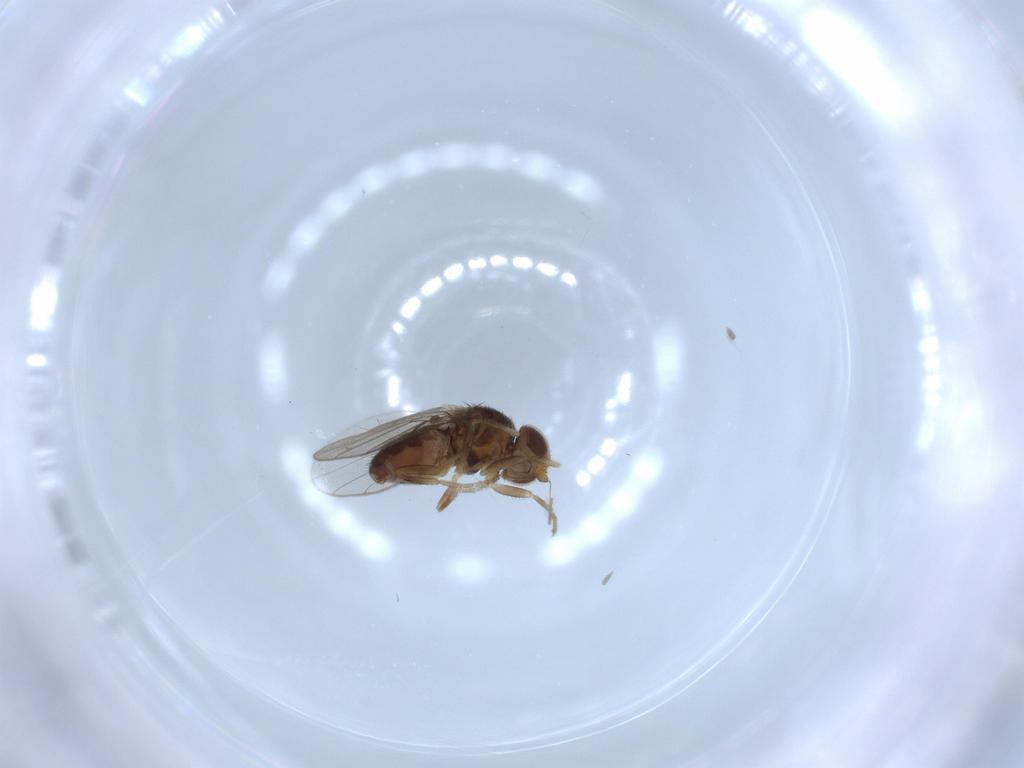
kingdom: Animalia
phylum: Arthropoda
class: Insecta
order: Diptera
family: Chloropidae
